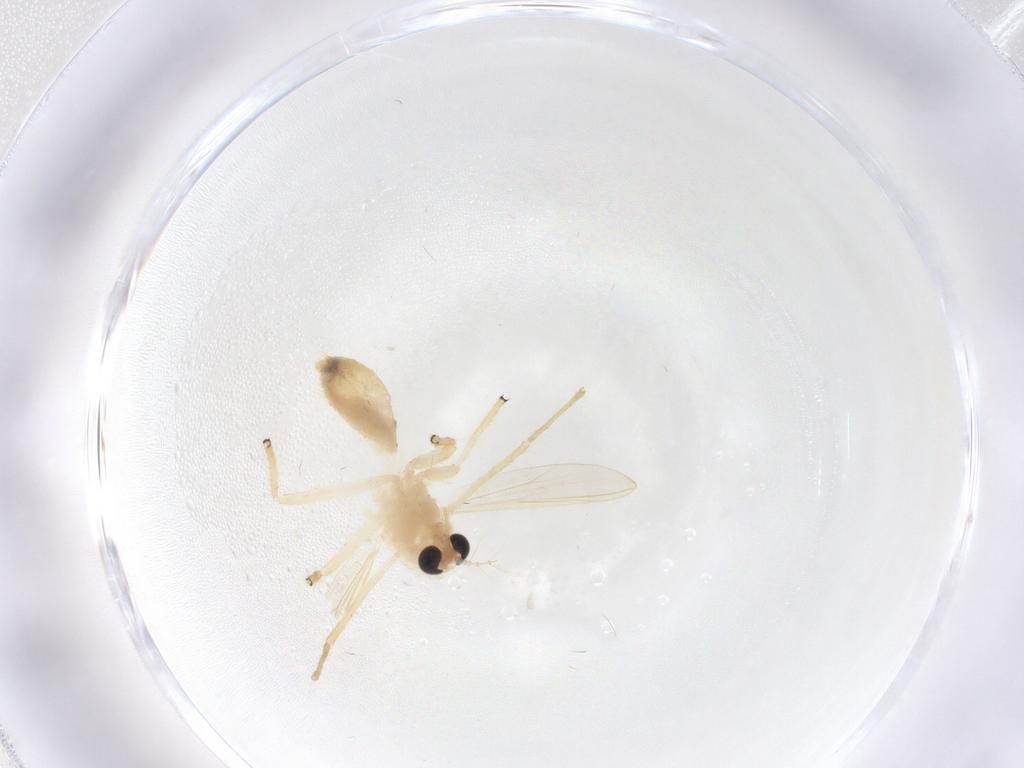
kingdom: Animalia
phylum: Arthropoda
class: Insecta
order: Diptera
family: Chironomidae
